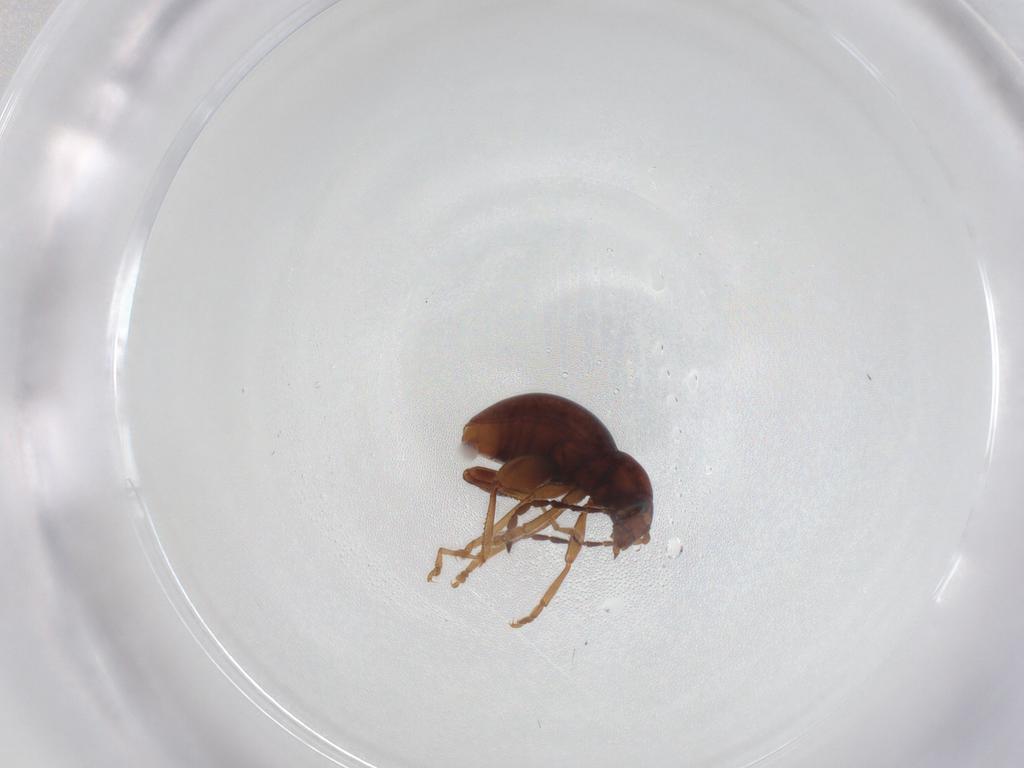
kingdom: Animalia
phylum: Arthropoda
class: Insecta
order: Coleoptera
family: Chrysomelidae
